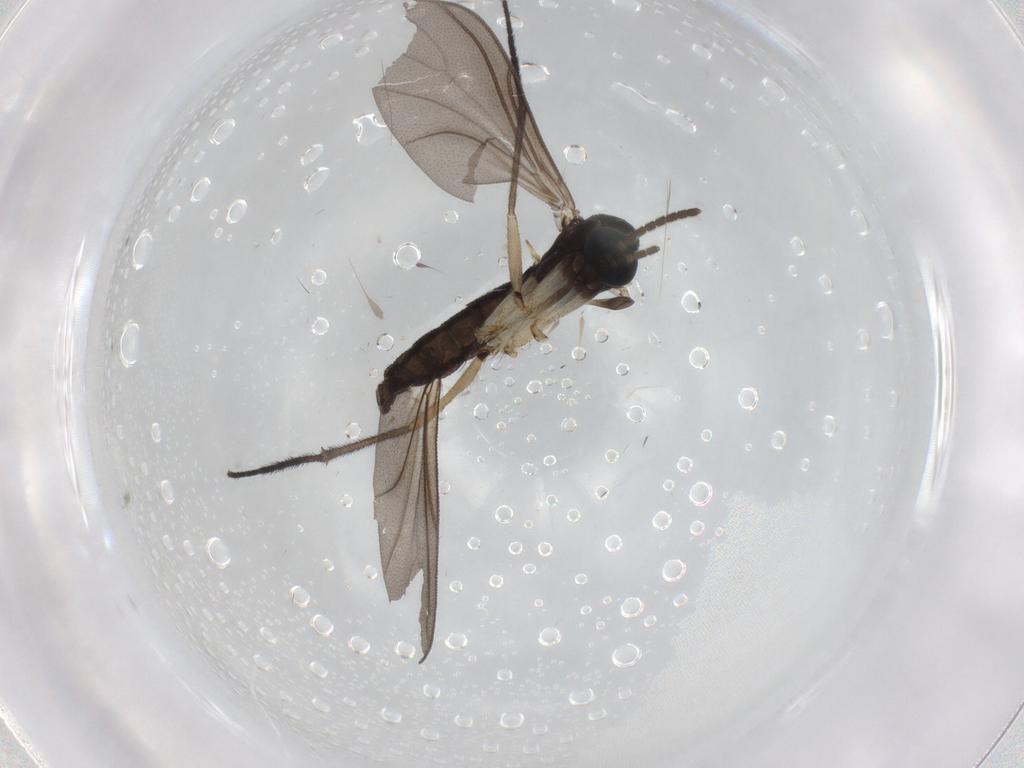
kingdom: Animalia
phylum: Arthropoda
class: Insecta
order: Diptera
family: Sciaridae
